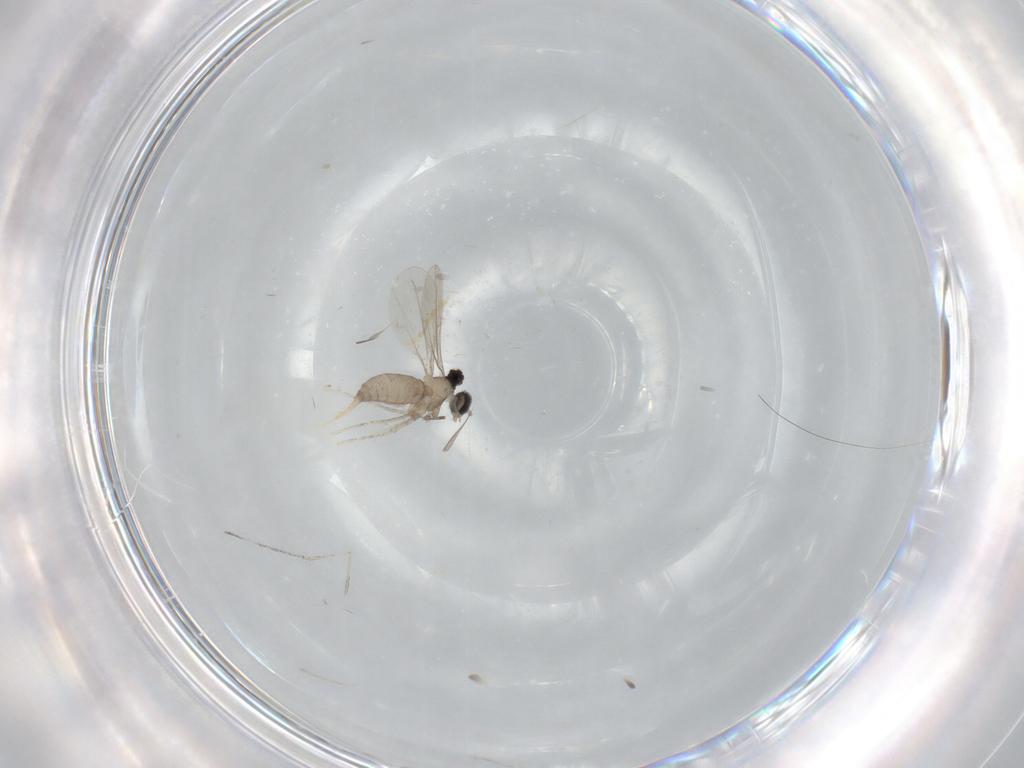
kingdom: Animalia
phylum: Arthropoda
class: Insecta
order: Diptera
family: Cecidomyiidae
